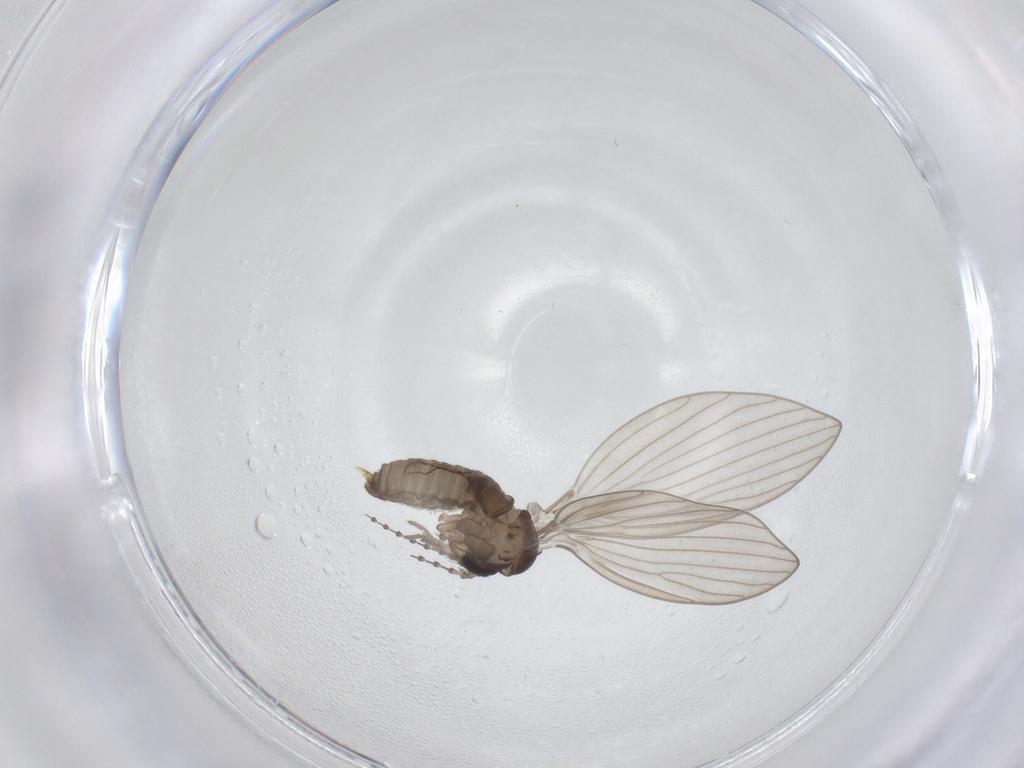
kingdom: Animalia
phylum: Arthropoda
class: Insecta
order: Diptera
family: Psychodidae
